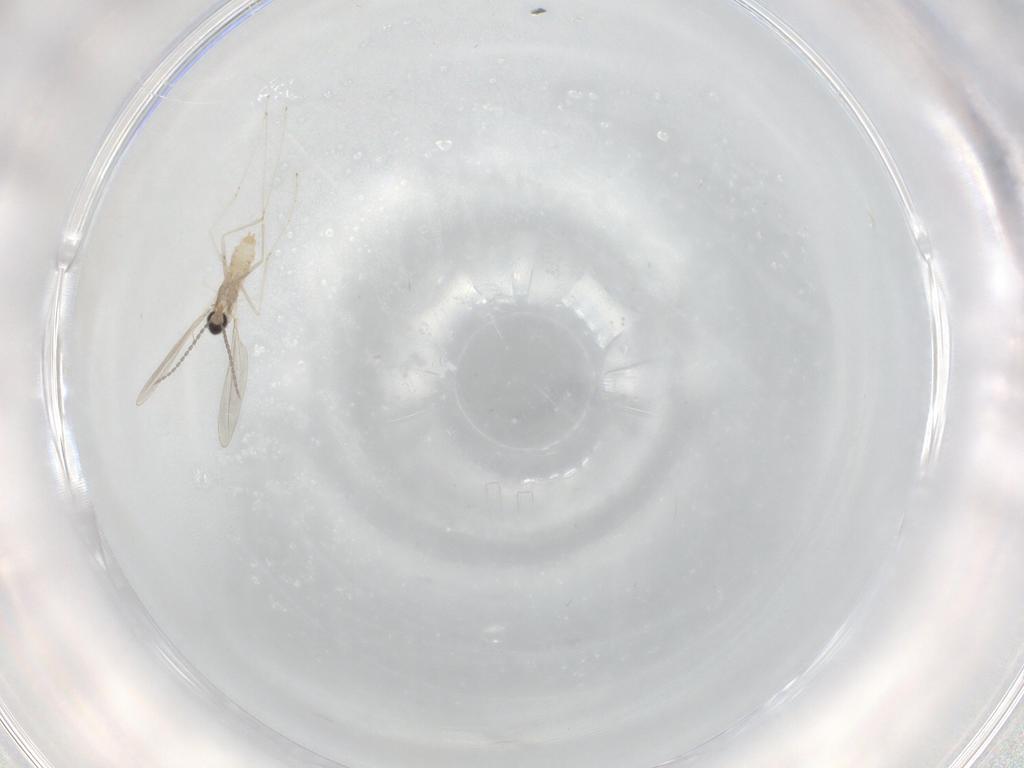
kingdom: Animalia
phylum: Arthropoda
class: Insecta
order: Diptera
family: Cecidomyiidae
